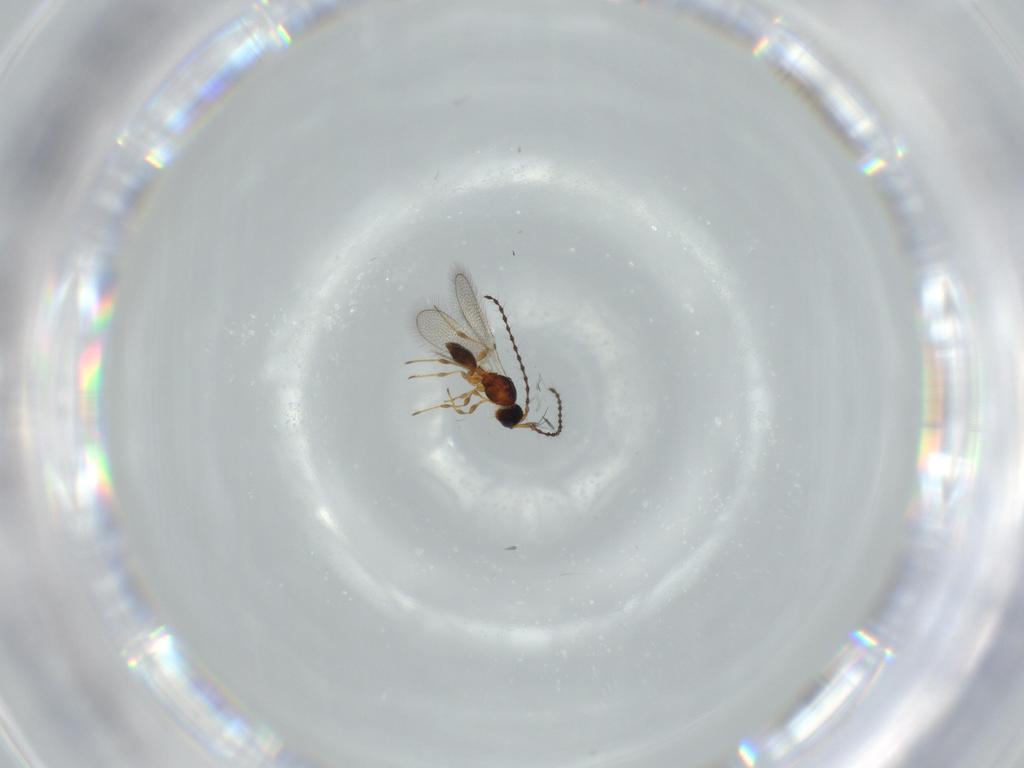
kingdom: Animalia
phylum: Arthropoda
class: Insecta
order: Hymenoptera
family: Diapriidae
